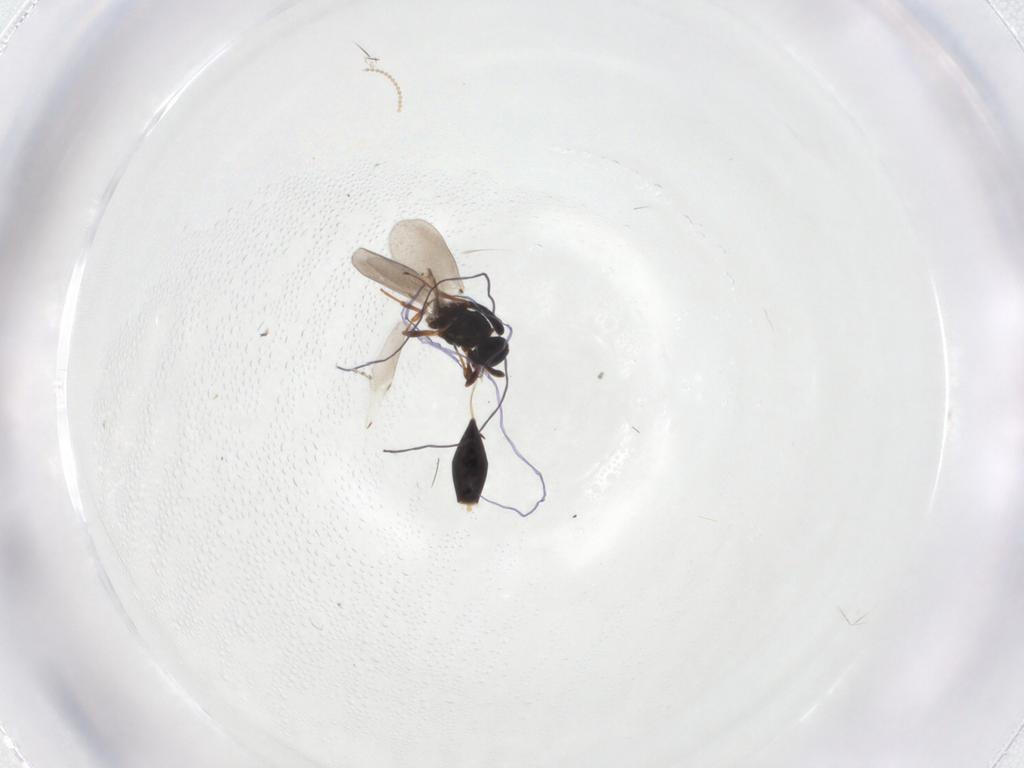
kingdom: Animalia
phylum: Arthropoda
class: Insecta
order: Hymenoptera
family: Platygastridae
